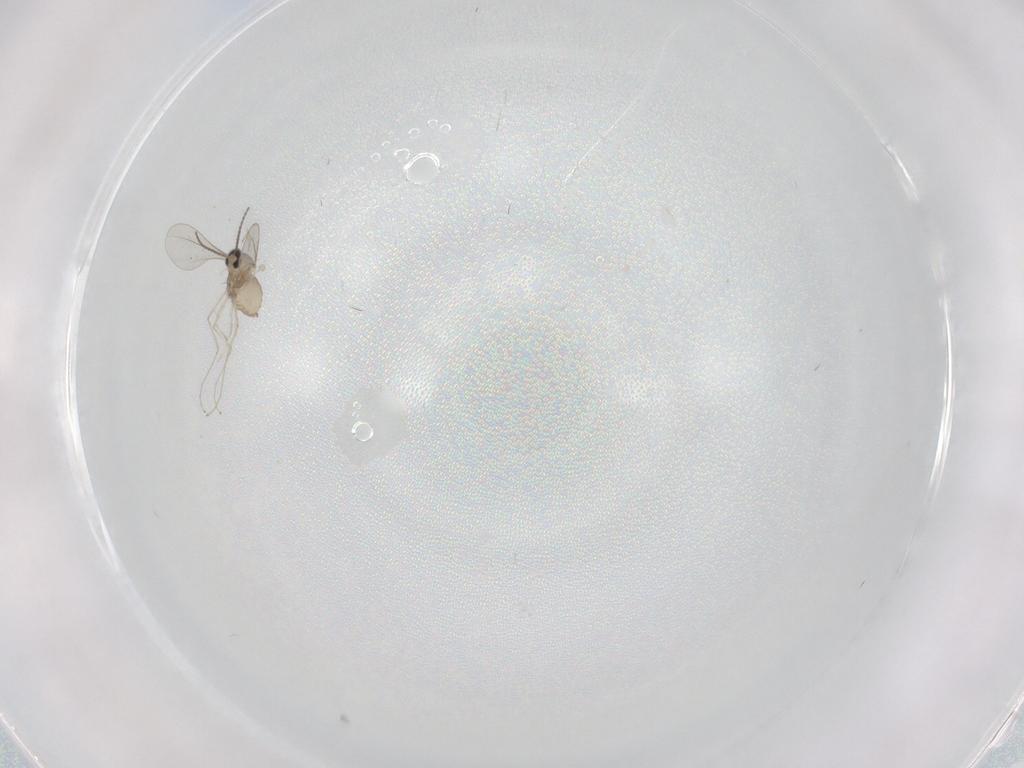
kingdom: Animalia
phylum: Arthropoda
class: Insecta
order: Diptera
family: Cecidomyiidae
